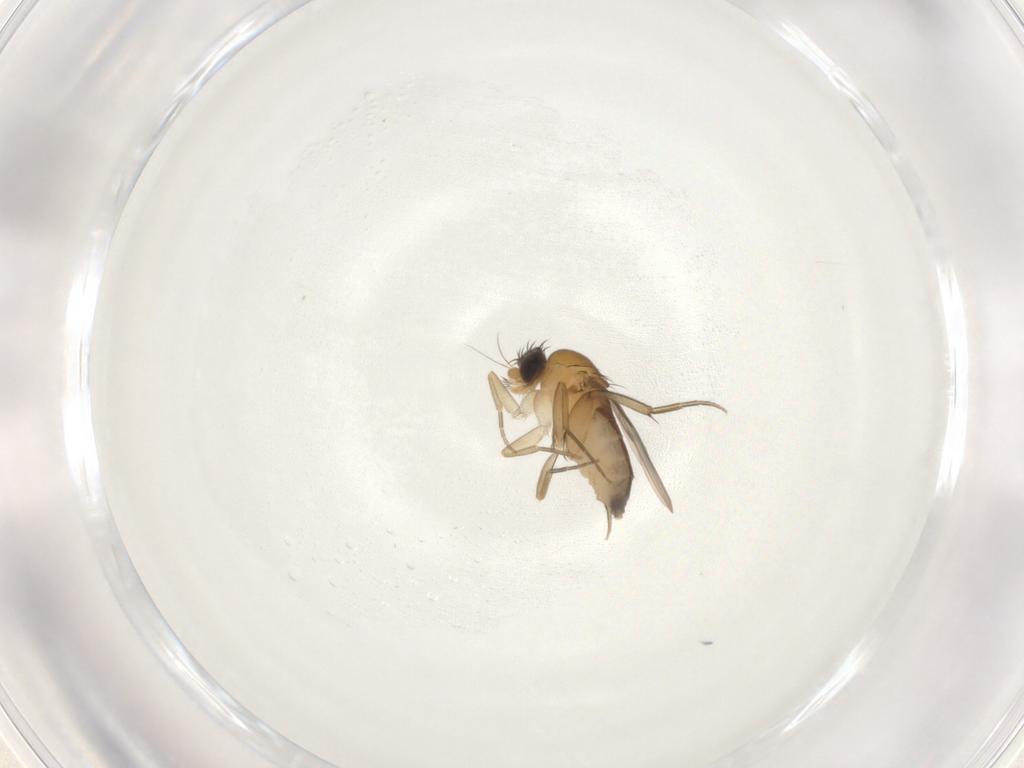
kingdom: Animalia
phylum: Arthropoda
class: Insecta
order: Diptera
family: Phoridae
